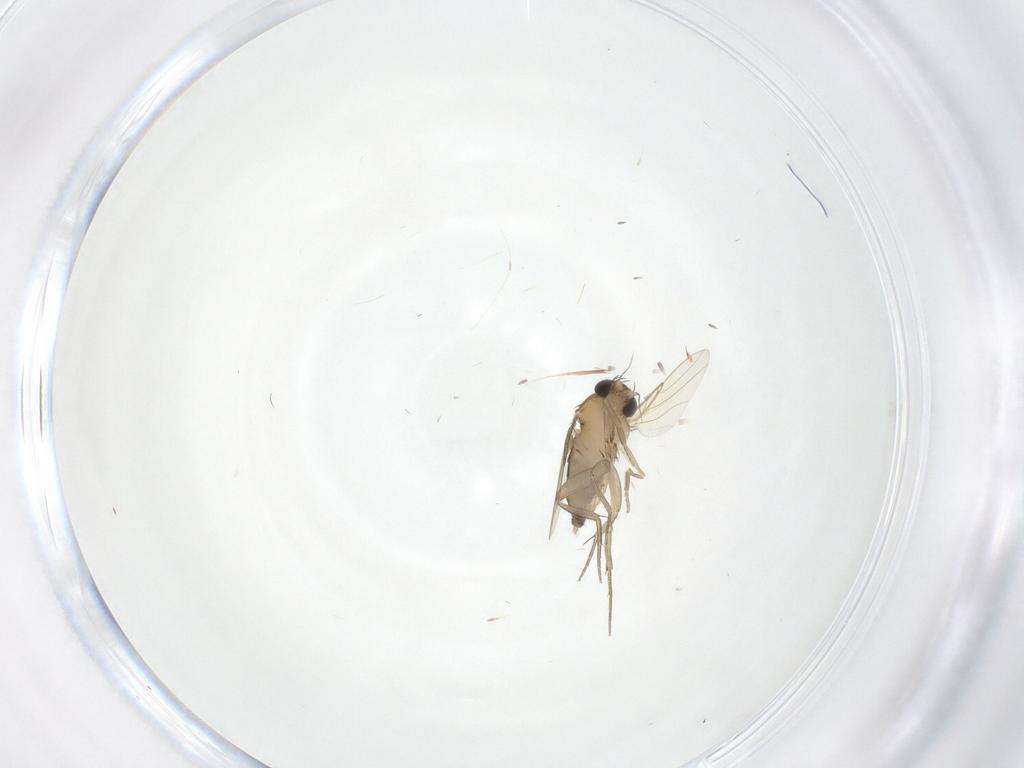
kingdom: Animalia
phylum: Arthropoda
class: Insecta
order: Diptera
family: Phoridae
